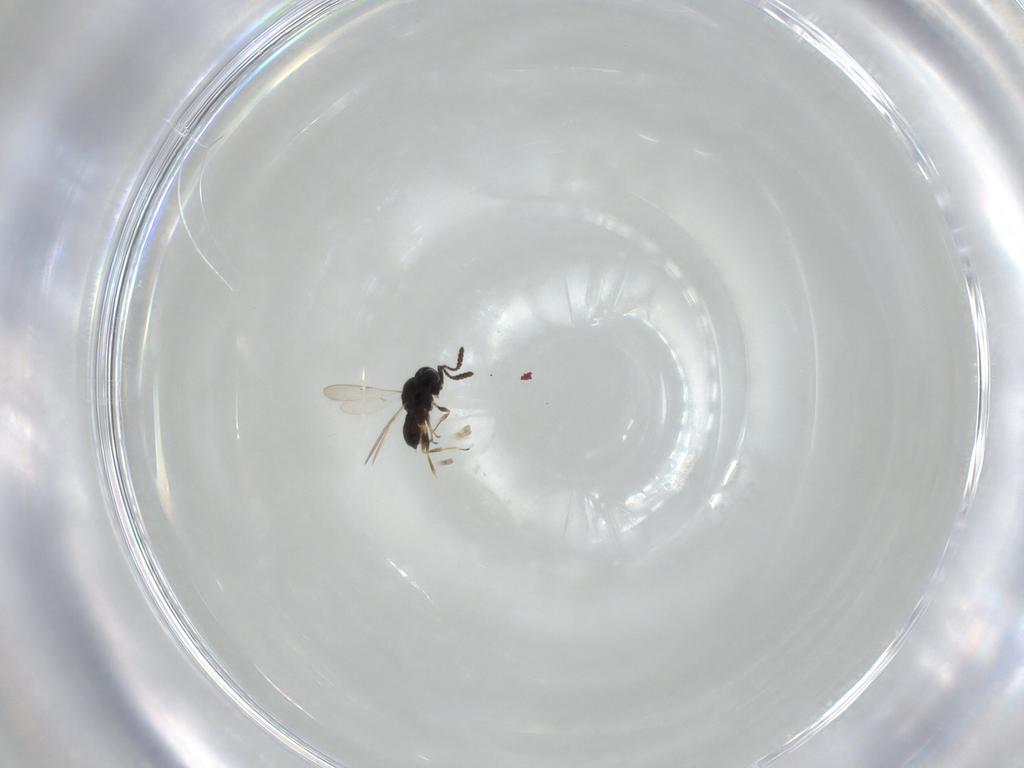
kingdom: Animalia
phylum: Arthropoda
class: Insecta
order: Hymenoptera
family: Scelionidae
